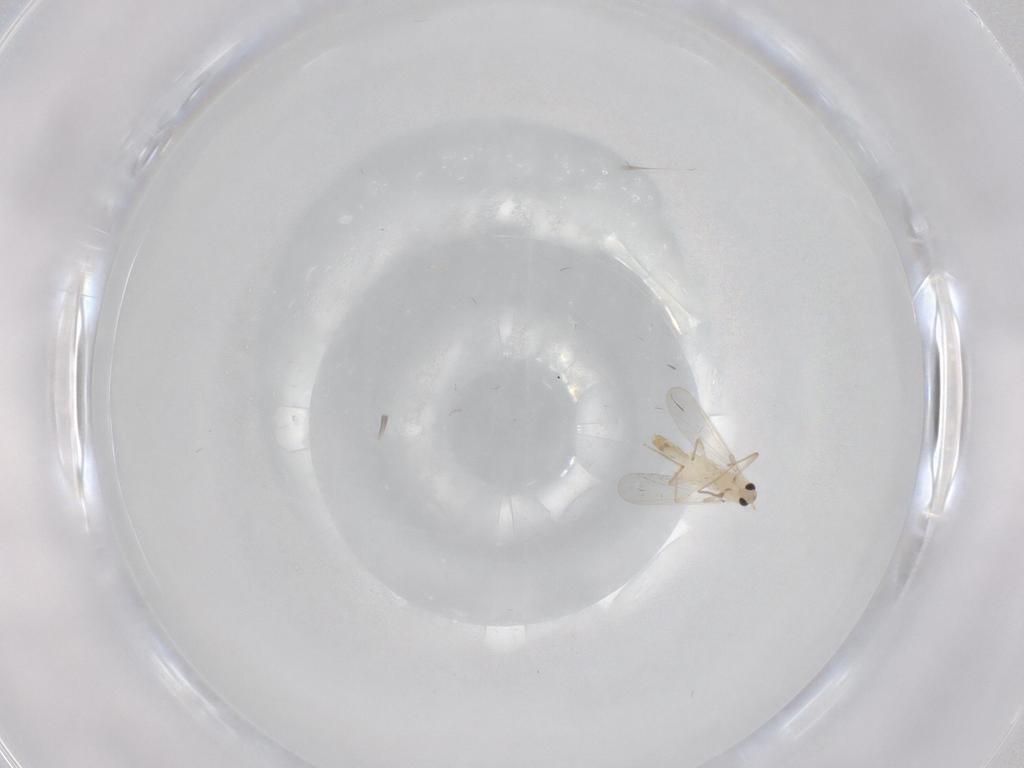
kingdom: Animalia
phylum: Arthropoda
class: Insecta
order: Diptera
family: Chironomidae
